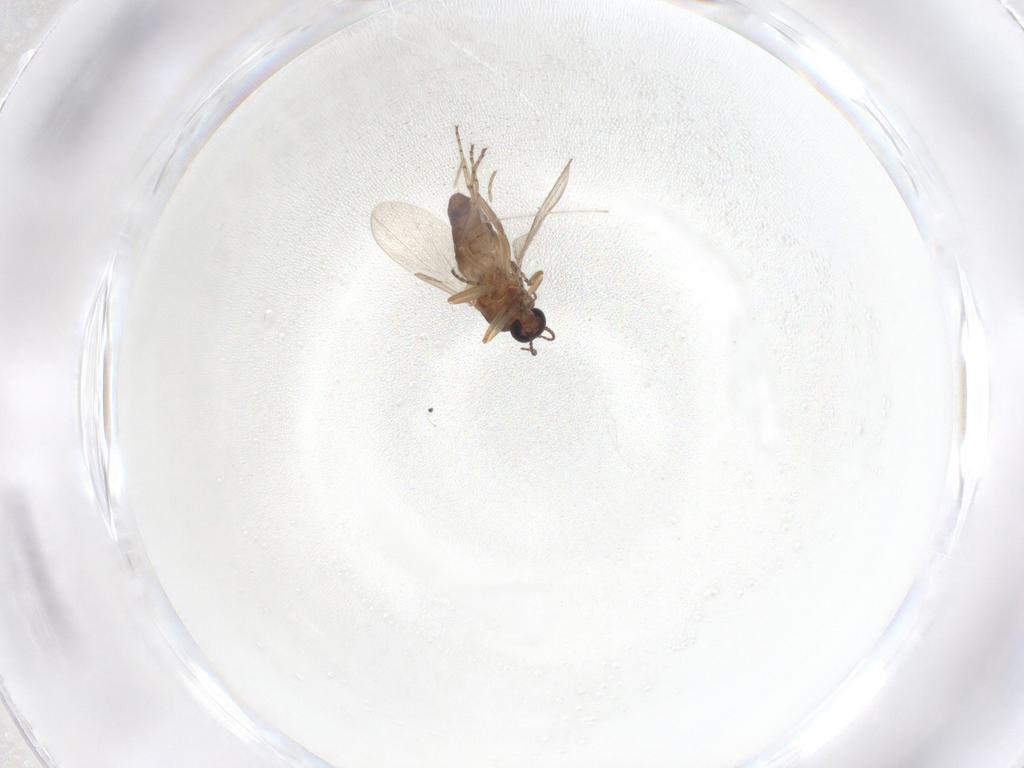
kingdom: Animalia
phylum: Arthropoda
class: Insecta
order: Diptera
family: Ceratopogonidae
